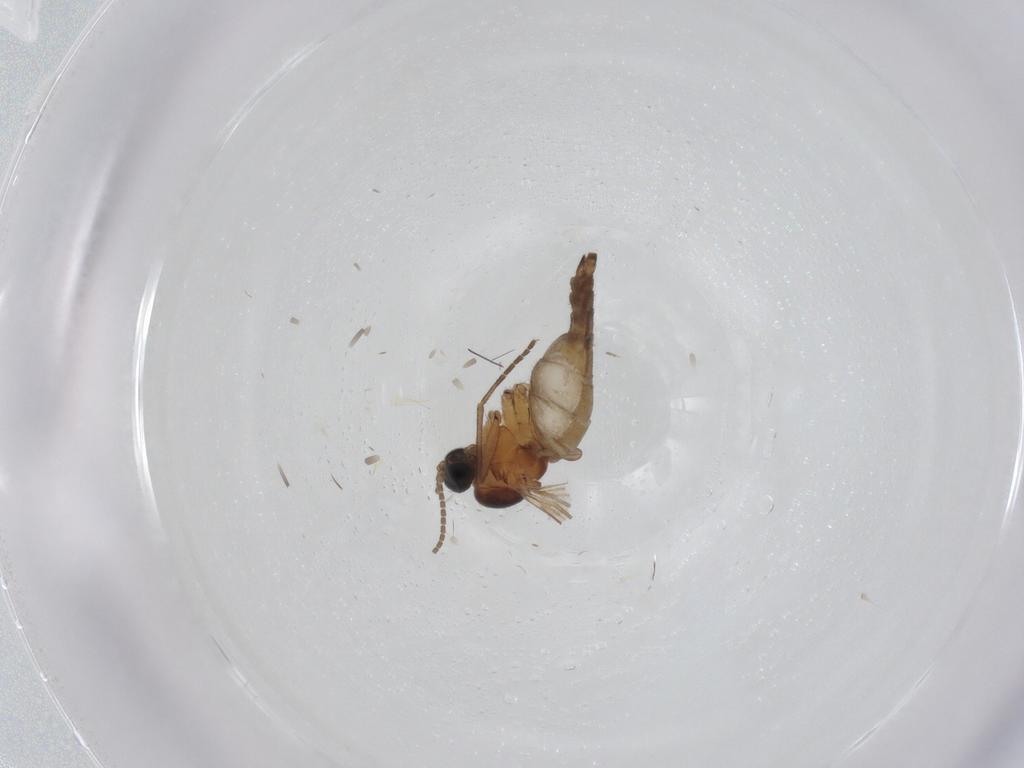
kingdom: Animalia
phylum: Arthropoda
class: Insecta
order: Diptera
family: Sciaridae
